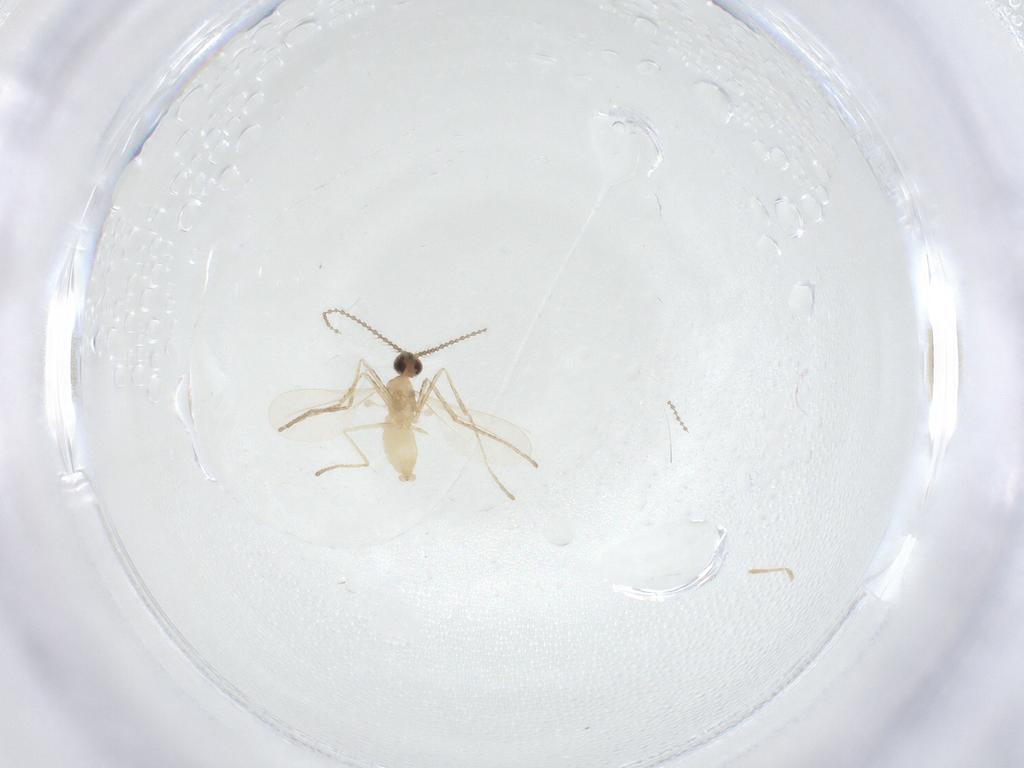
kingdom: Animalia
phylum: Arthropoda
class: Insecta
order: Diptera
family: Cecidomyiidae
